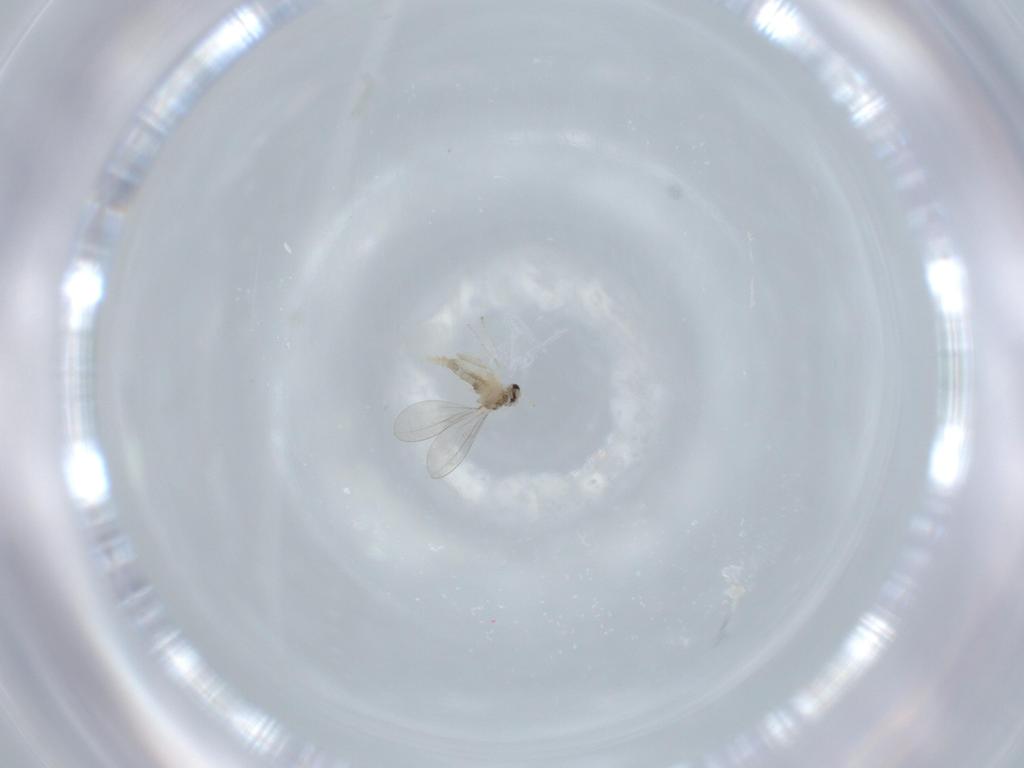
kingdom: Animalia
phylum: Arthropoda
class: Insecta
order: Diptera
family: Cecidomyiidae
